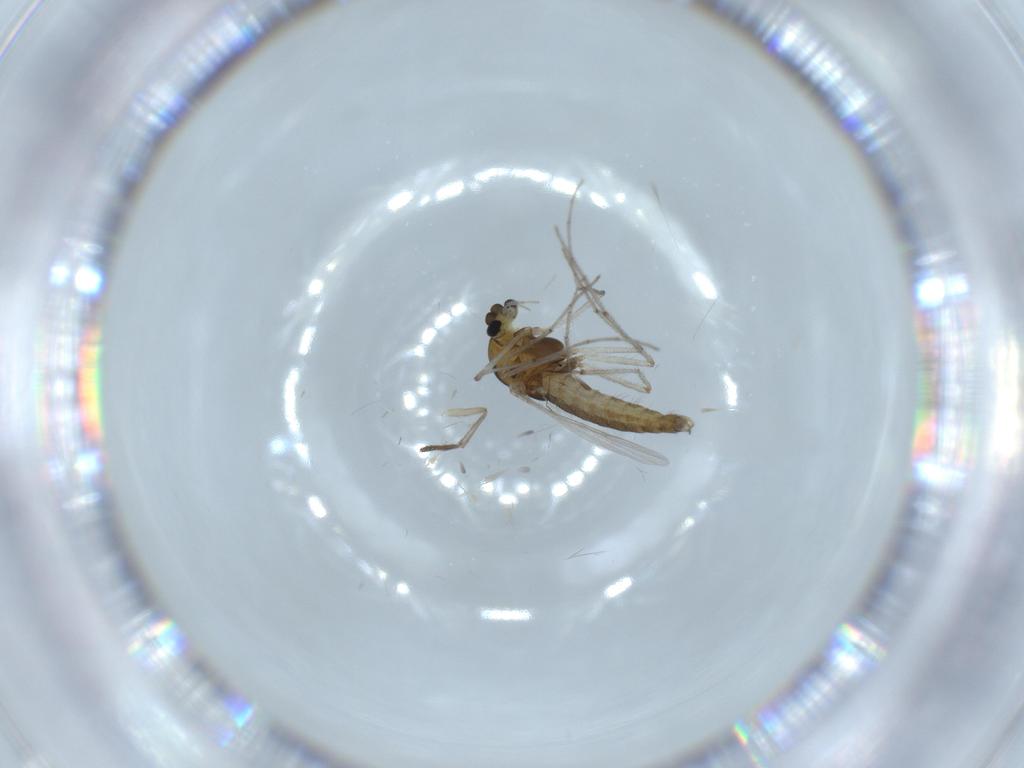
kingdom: Animalia
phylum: Arthropoda
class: Insecta
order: Diptera
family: Chironomidae
